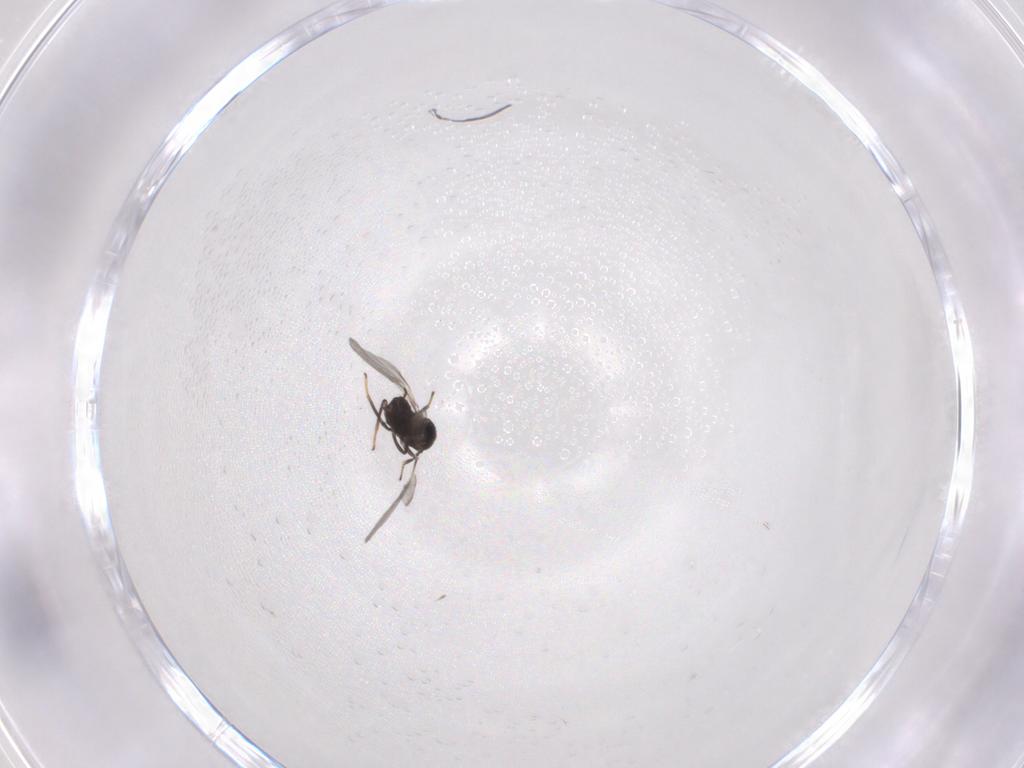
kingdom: Animalia
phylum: Arthropoda
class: Insecta
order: Hymenoptera
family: Encyrtidae
